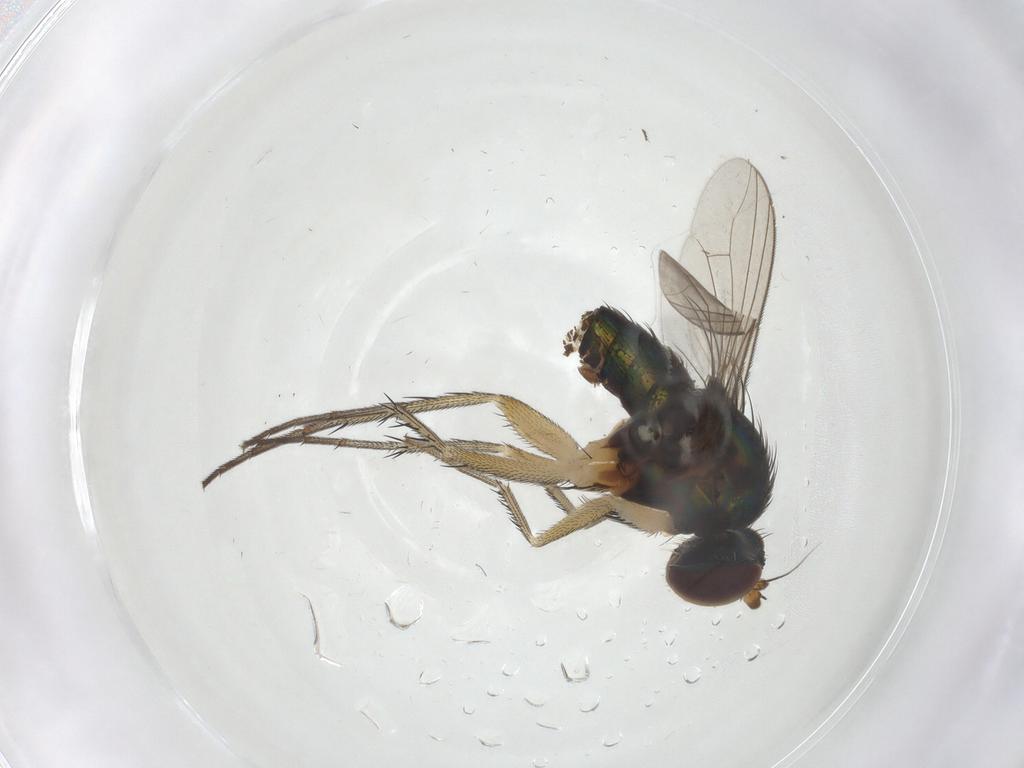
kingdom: Animalia
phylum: Arthropoda
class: Insecta
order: Diptera
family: Dolichopodidae
